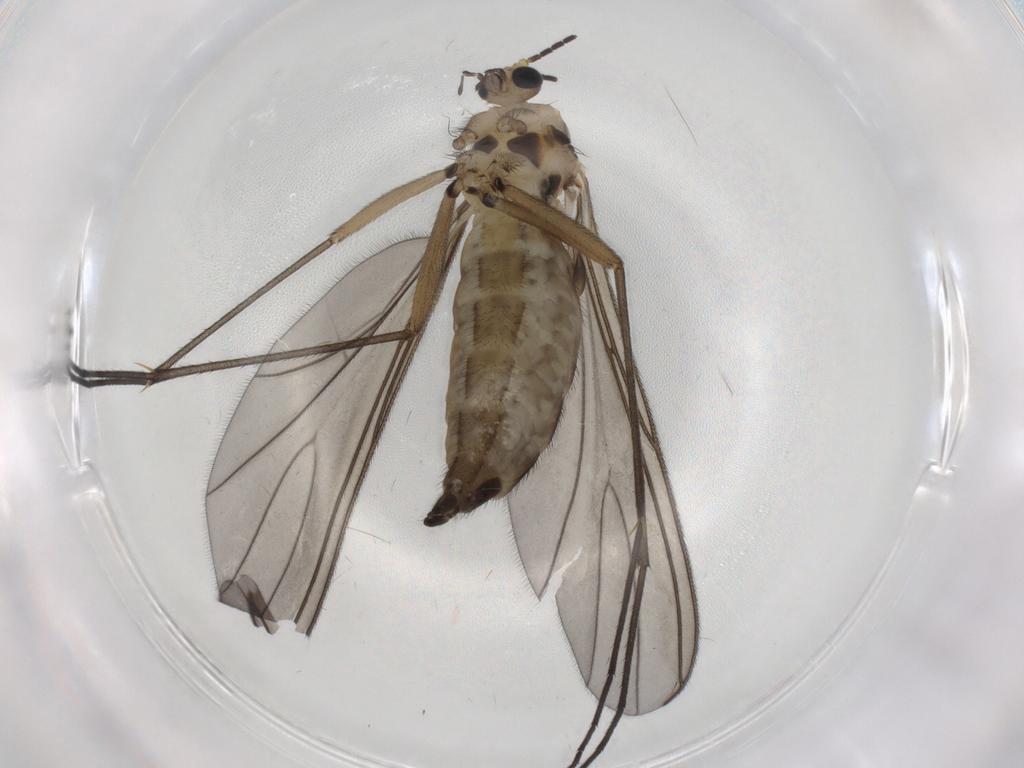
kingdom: Animalia
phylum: Arthropoda
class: Insecta
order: Diptera
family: Sciaridae
